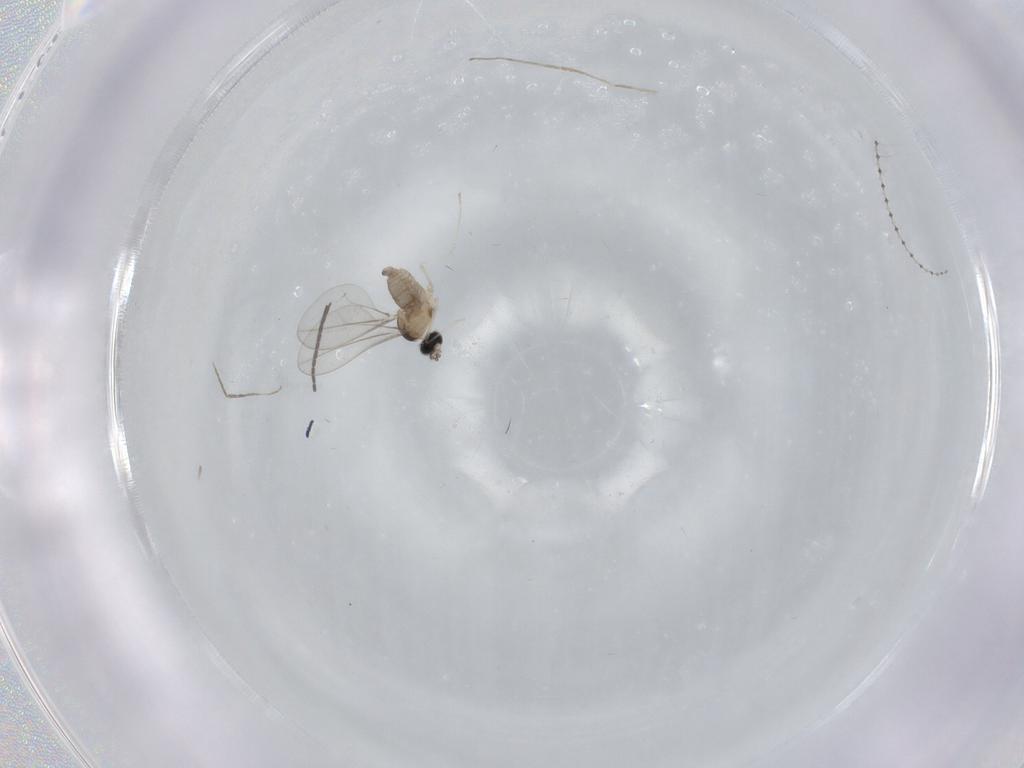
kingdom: Animalia
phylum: Arthropoda
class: Insecta
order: Diptera
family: Sciaridae
